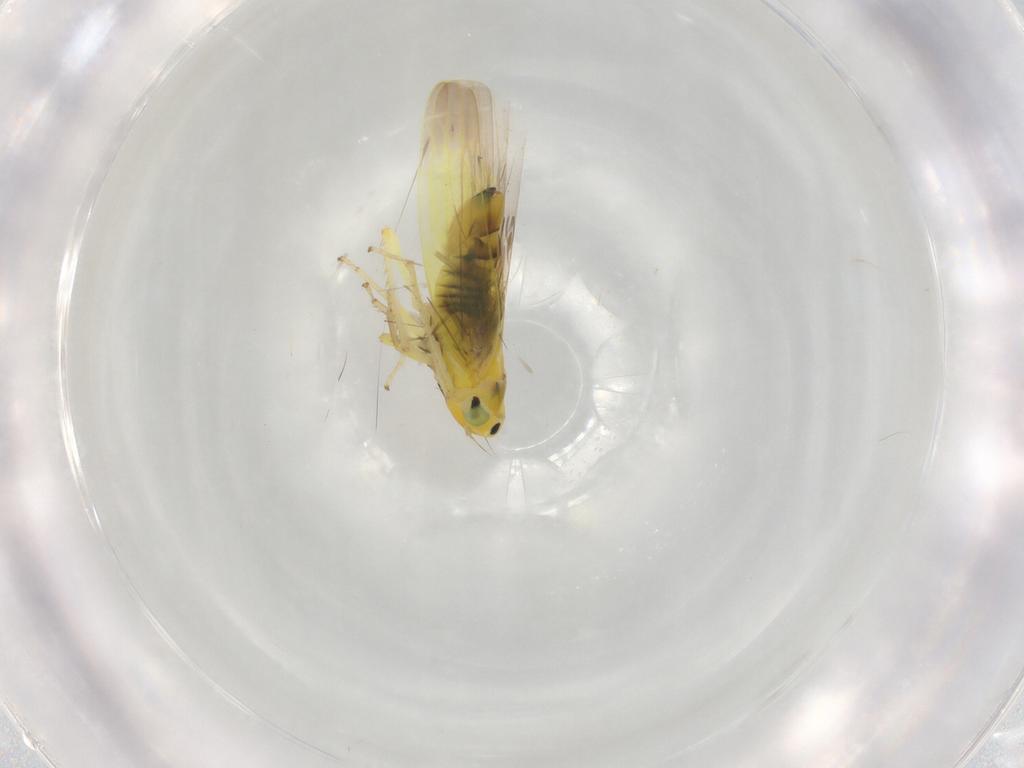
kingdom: Animalia
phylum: Arthropoda
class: Insecta
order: Hemiptera
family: Cicadellidae
